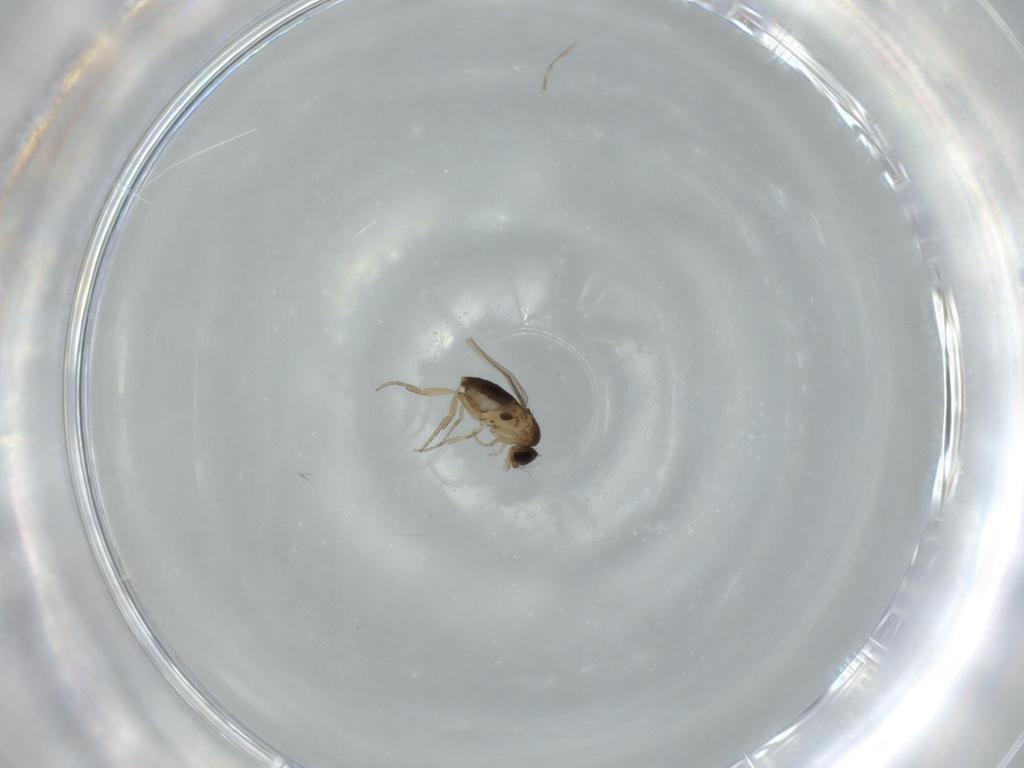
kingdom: Animalia
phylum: Arthropoda
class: Insecta
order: Diptera
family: Phoridae
